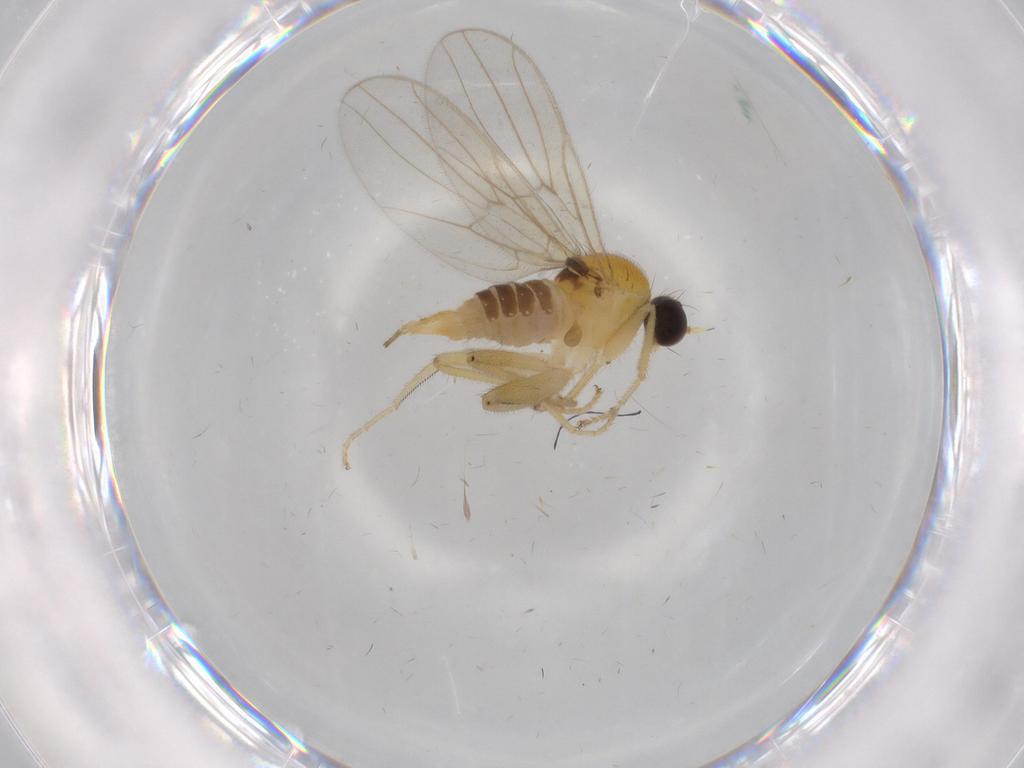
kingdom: Animalia
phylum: Arthropoda
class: Insecta
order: Diptera
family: Hybotidae
